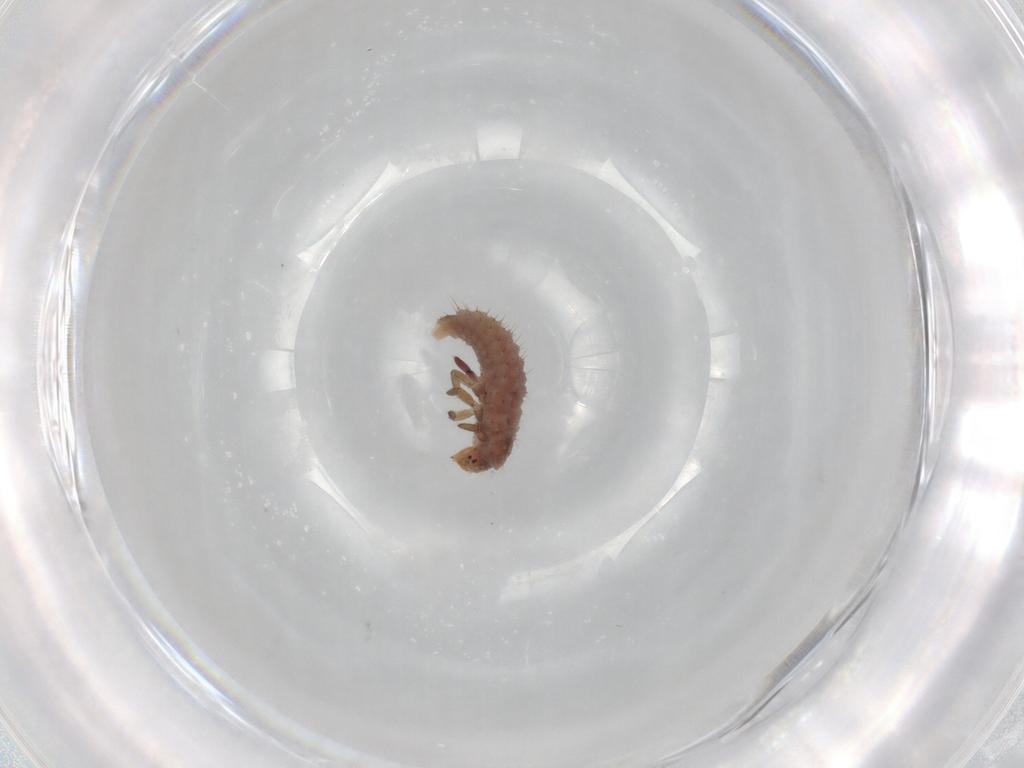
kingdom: Animalia
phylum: Arthropoda
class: Insecta
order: Coleoptera
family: Coccinellidae
